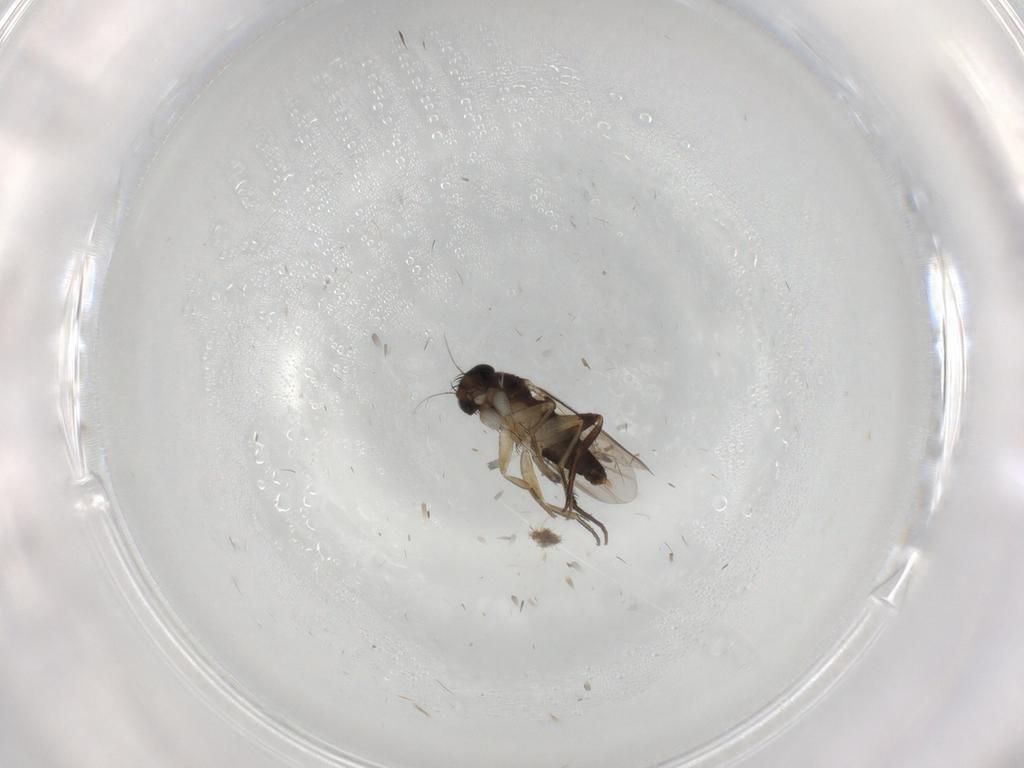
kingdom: Animalia
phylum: Arthropoda
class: Insecta
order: Diptera
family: Phoridae
